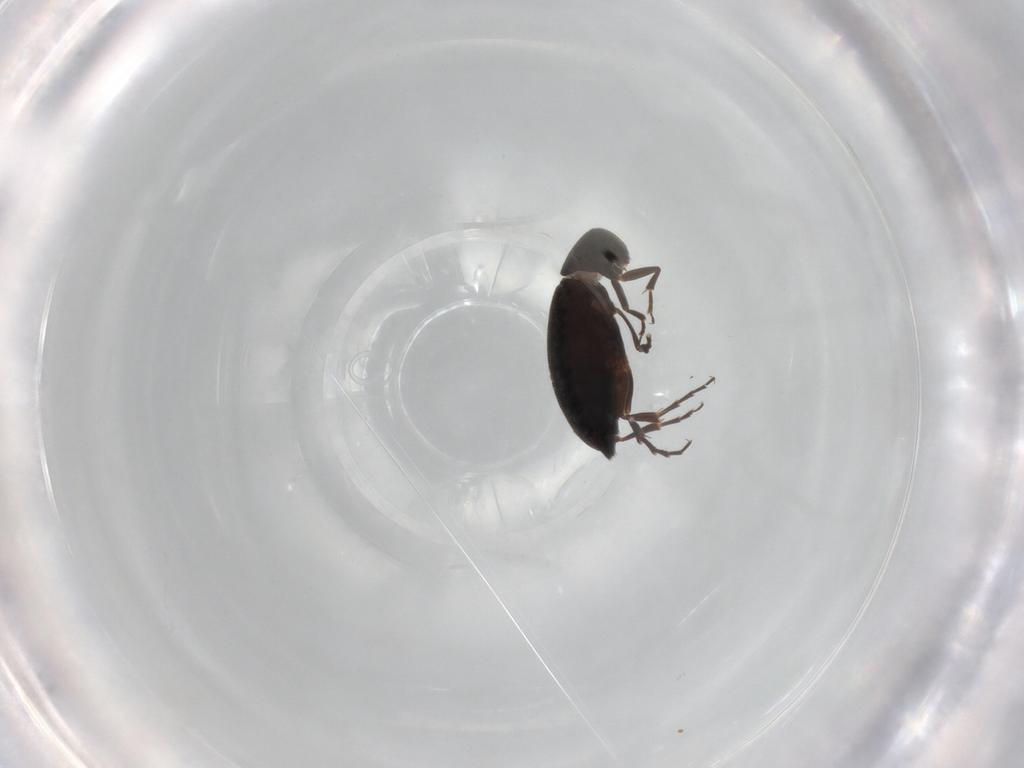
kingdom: Animalia
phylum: Arthropoda
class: Insecta
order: Coleoptera
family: Scraptiidae
